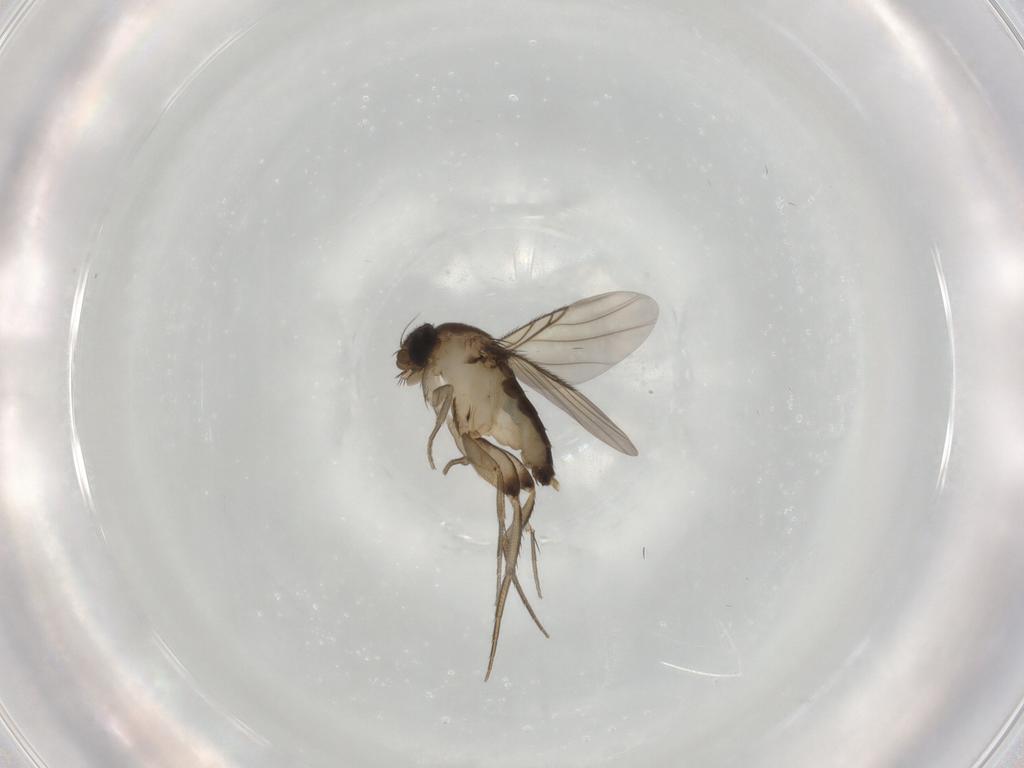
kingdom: Animalia
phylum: Arthropoda
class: Insecta
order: Diptera
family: Phoridae
